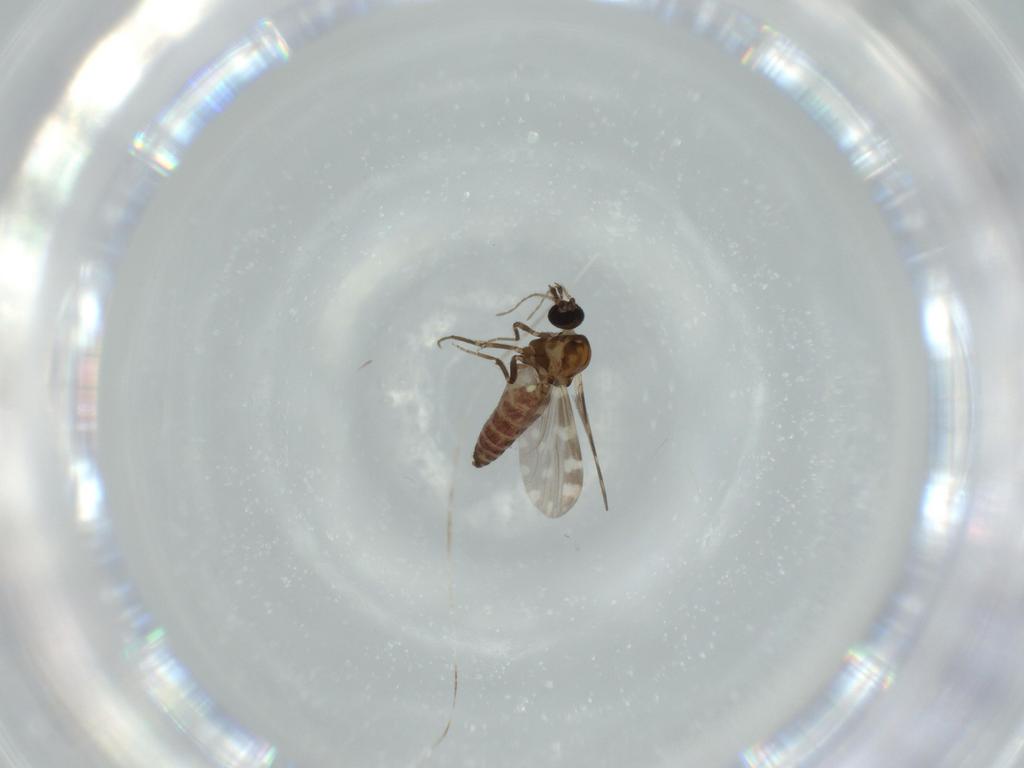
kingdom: Animalia
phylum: Arthropoda
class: Insecta
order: Diptera
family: Ceratopogonidae
